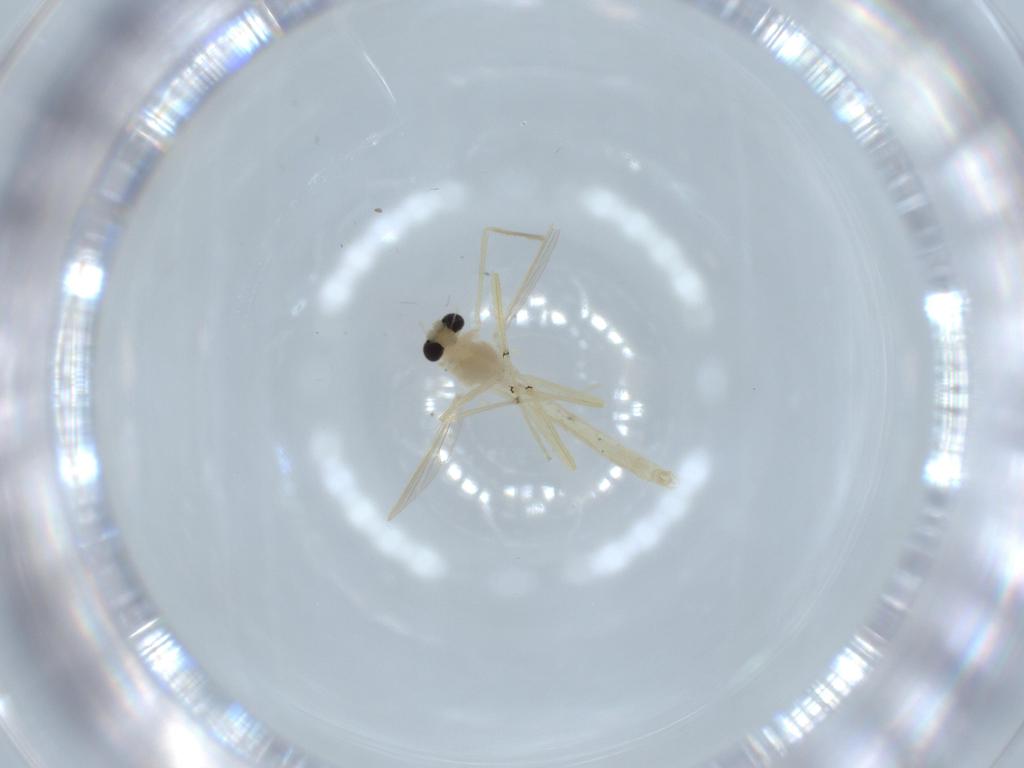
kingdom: Animalia
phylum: Arthropoda
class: Insecta
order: Diptera
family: Chironomidae
